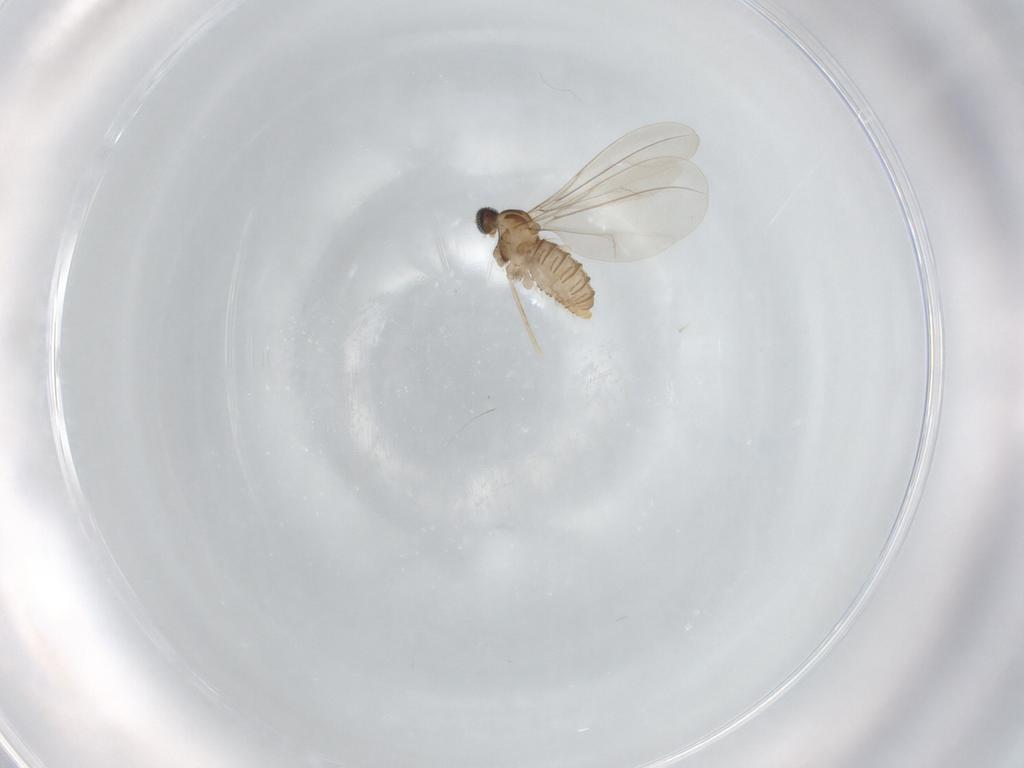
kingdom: Animalia
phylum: Arthropoda
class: Insecta
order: Diptera
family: Cecidomyiidae
